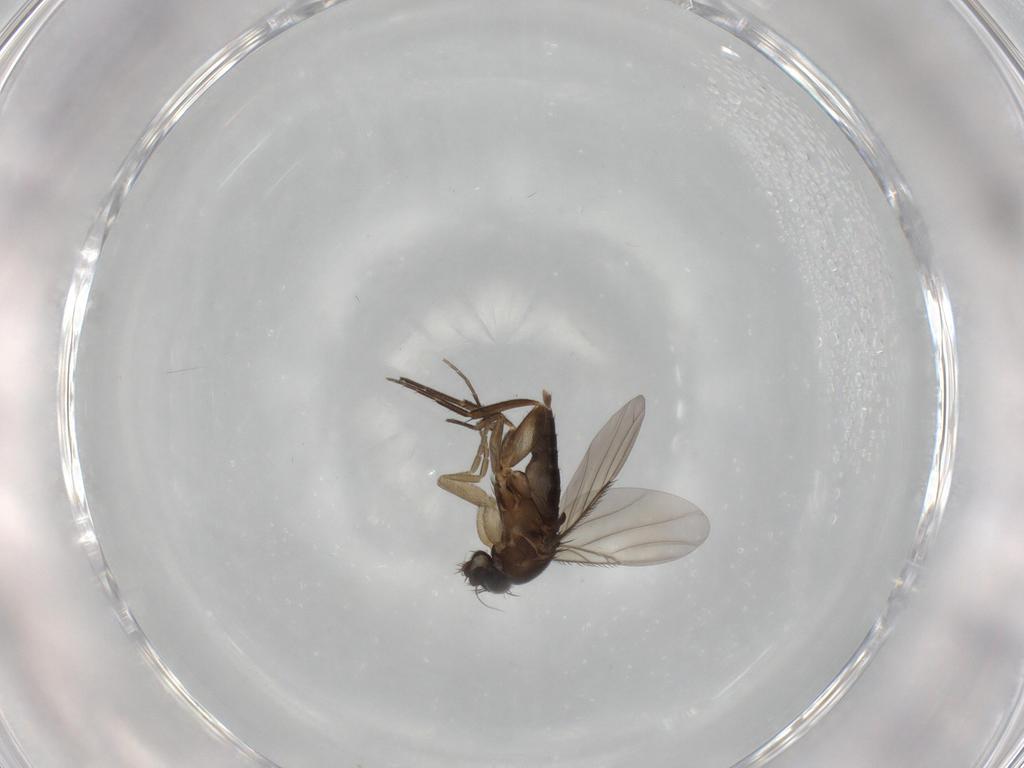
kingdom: Animalia
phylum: Arthropoda
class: Insecta
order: Diptera
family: Phoridae
